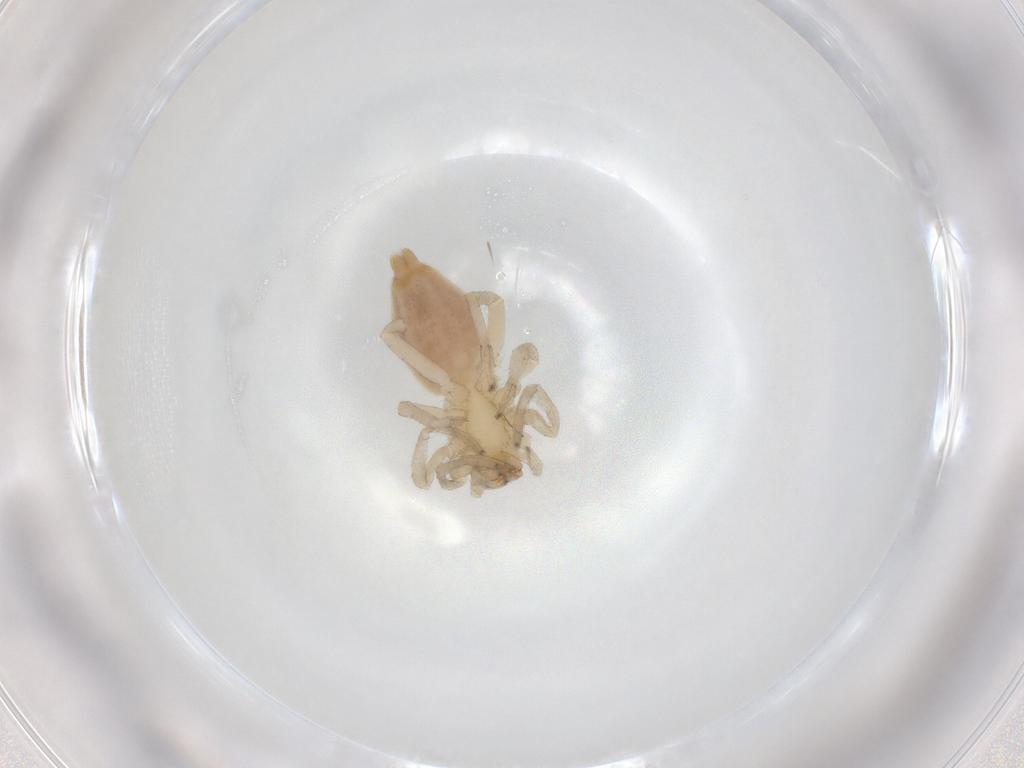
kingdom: Animalia
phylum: Arthropoda
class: Arachnida
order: Araneae
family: Clubionidae
